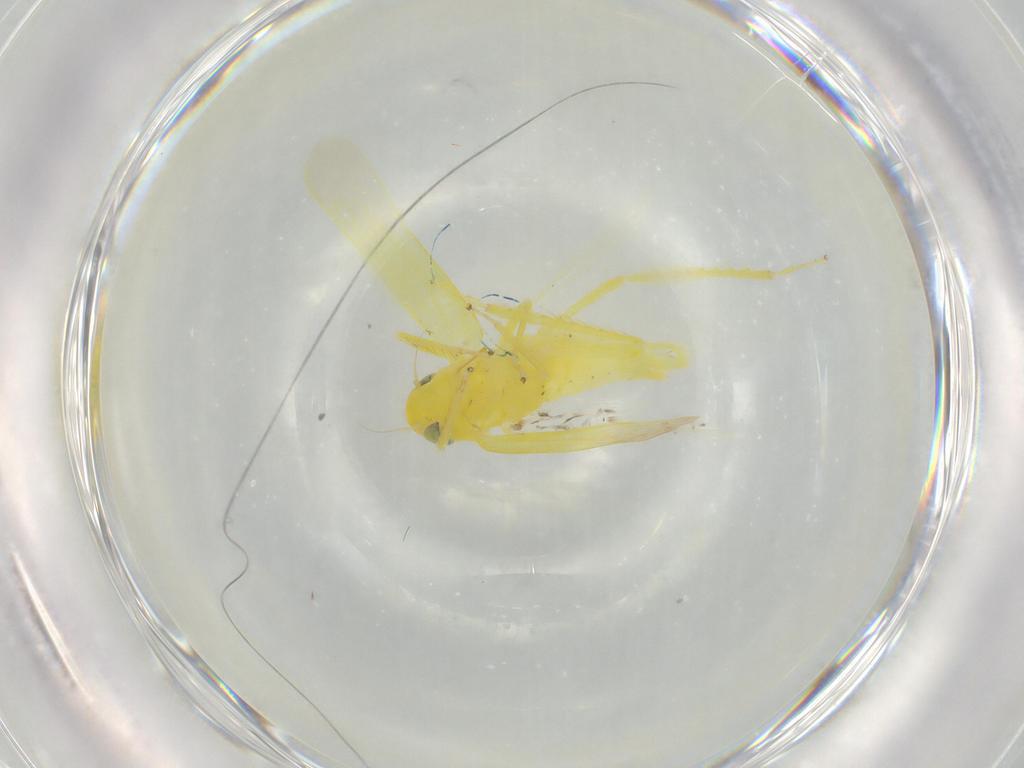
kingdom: Animalia
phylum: Arthropoda
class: Insecta
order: Hemiptera
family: Cicadellidae
